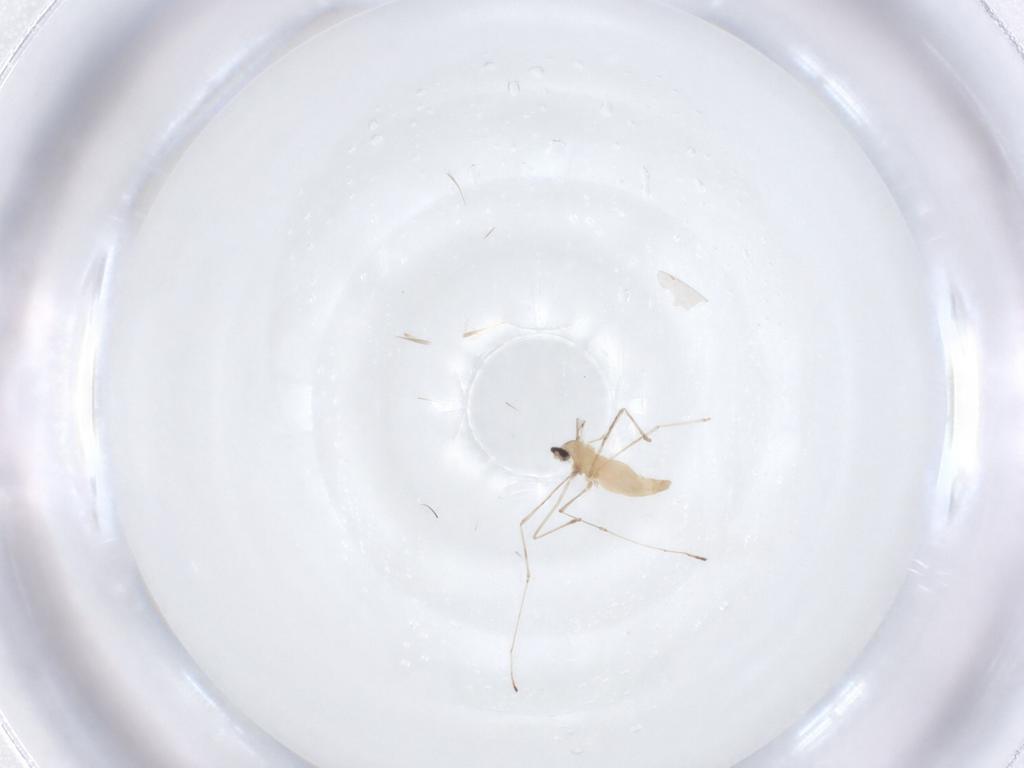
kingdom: Animalia
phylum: Arthropoda
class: Insecta
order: Diptera
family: Cecidomyiidae
